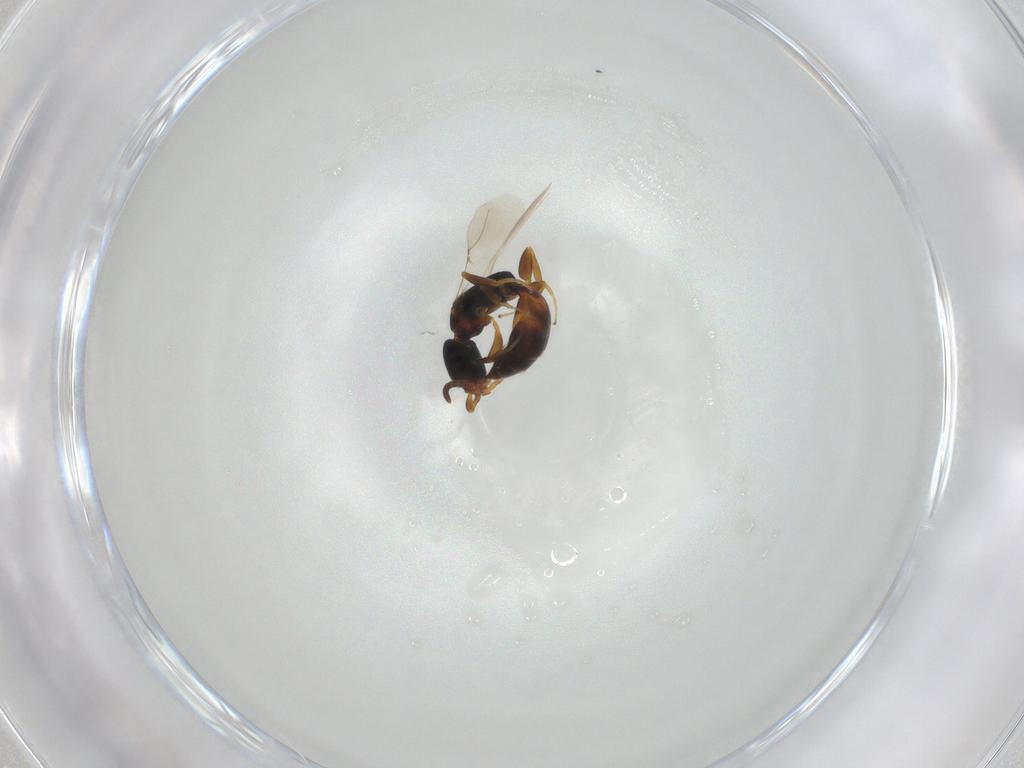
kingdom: Animalia
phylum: Arthropoda
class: Insecta
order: Hymenoptera
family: Bethylidae
